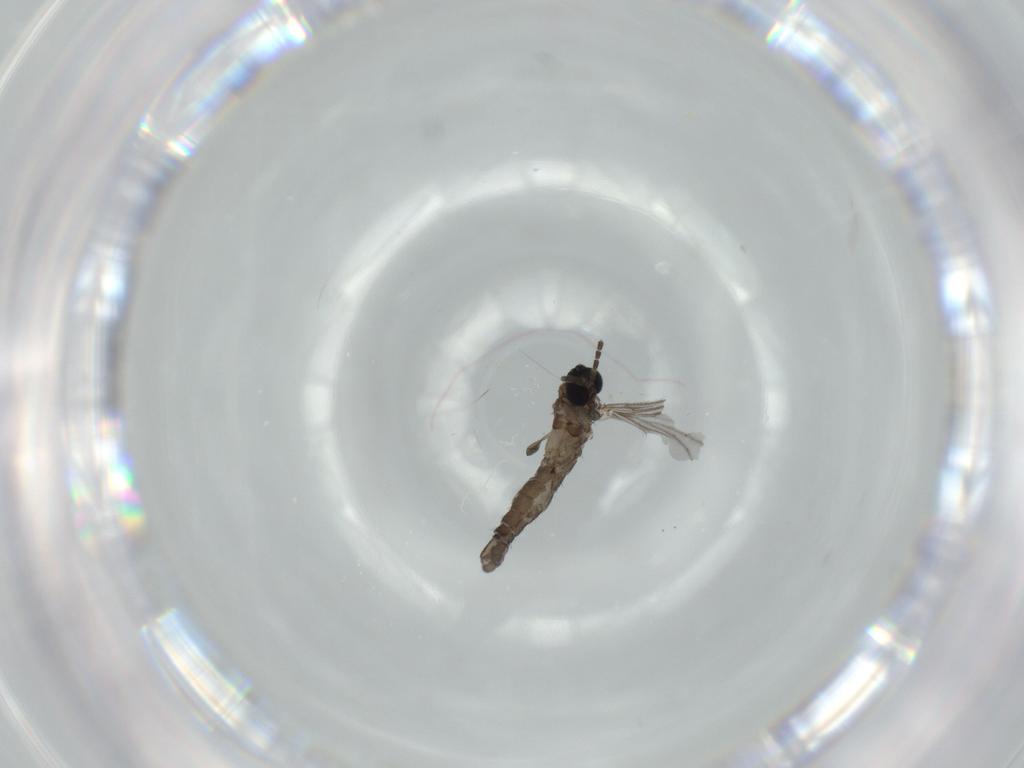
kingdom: Animalia
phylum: Arthropoda
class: Insecta
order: Diptera
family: Sciaridae
